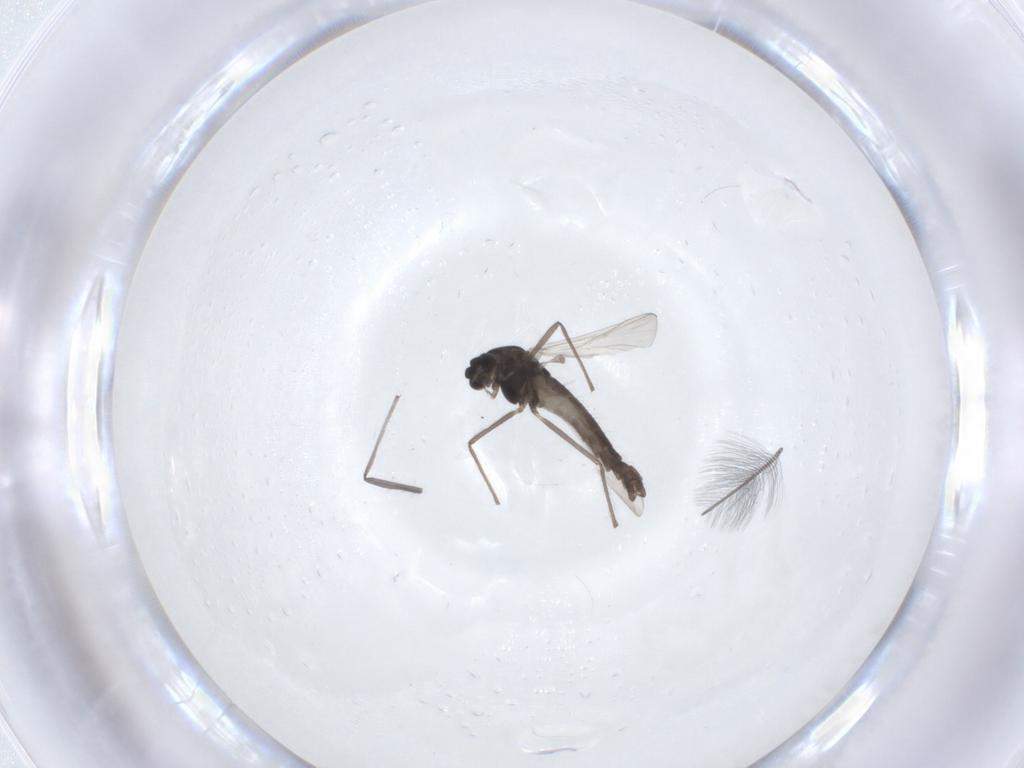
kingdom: Animalia
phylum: Arthropoda
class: Insecta
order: Diptera
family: Chironomidae
